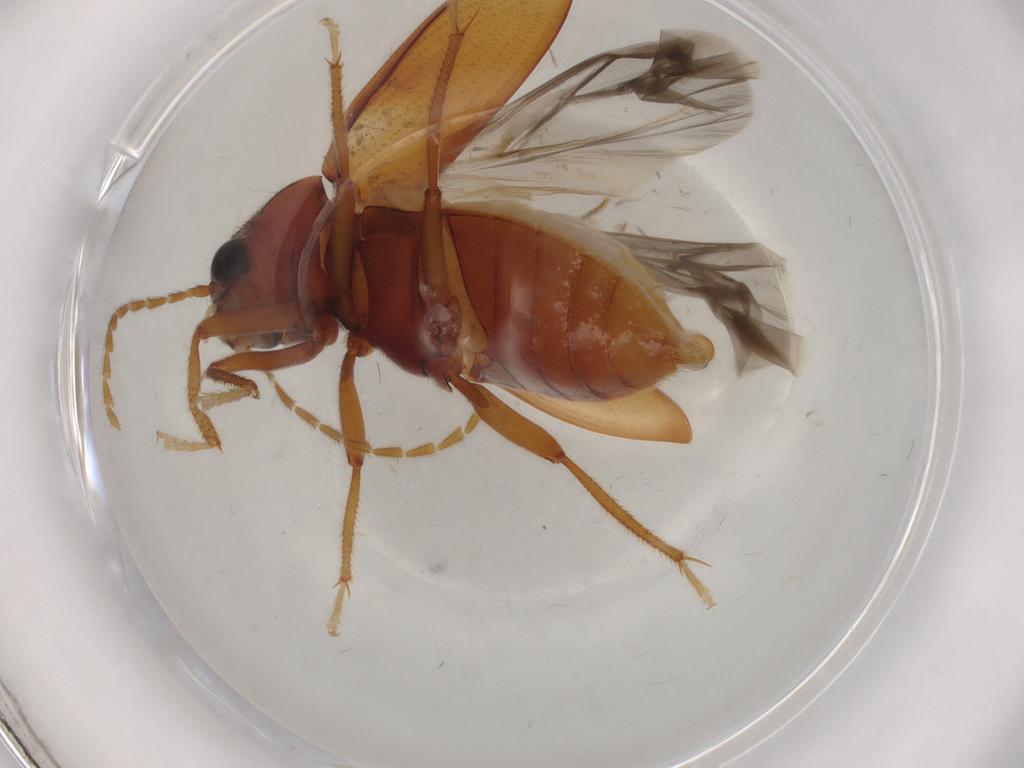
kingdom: Animalia
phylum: Arthropoda
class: Insecta
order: Coleoptera
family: Ptilodactylidae
